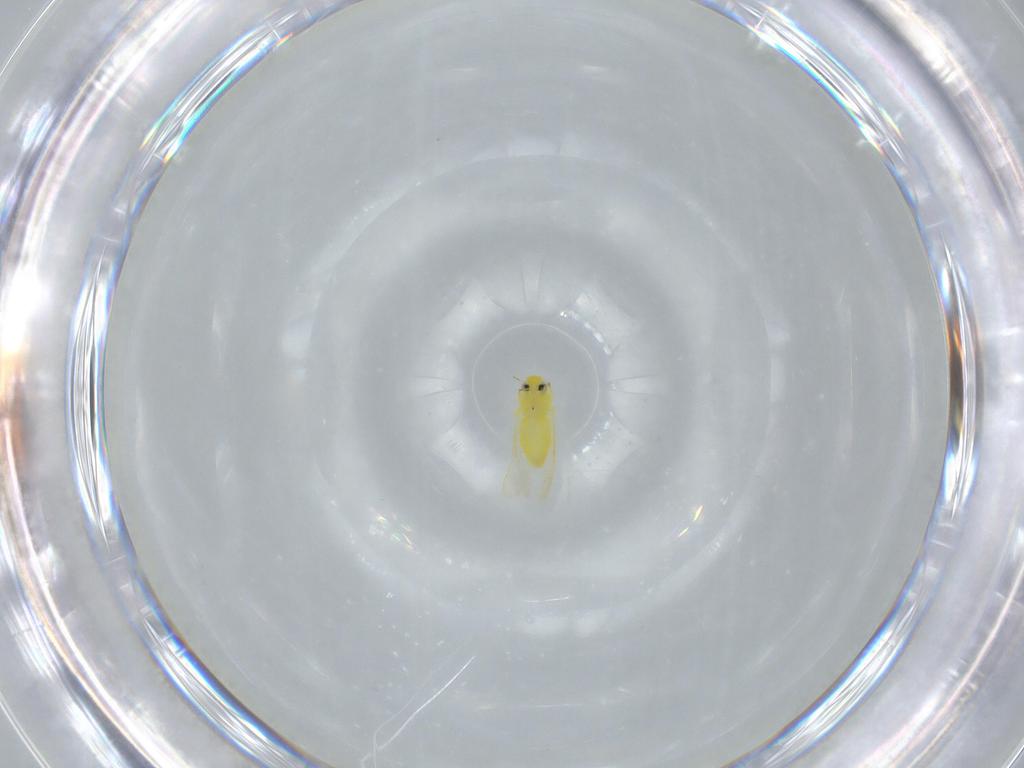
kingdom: Animalia
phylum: Arthropoda
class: Insecta
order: Hemiptera
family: Aleyrodidae
